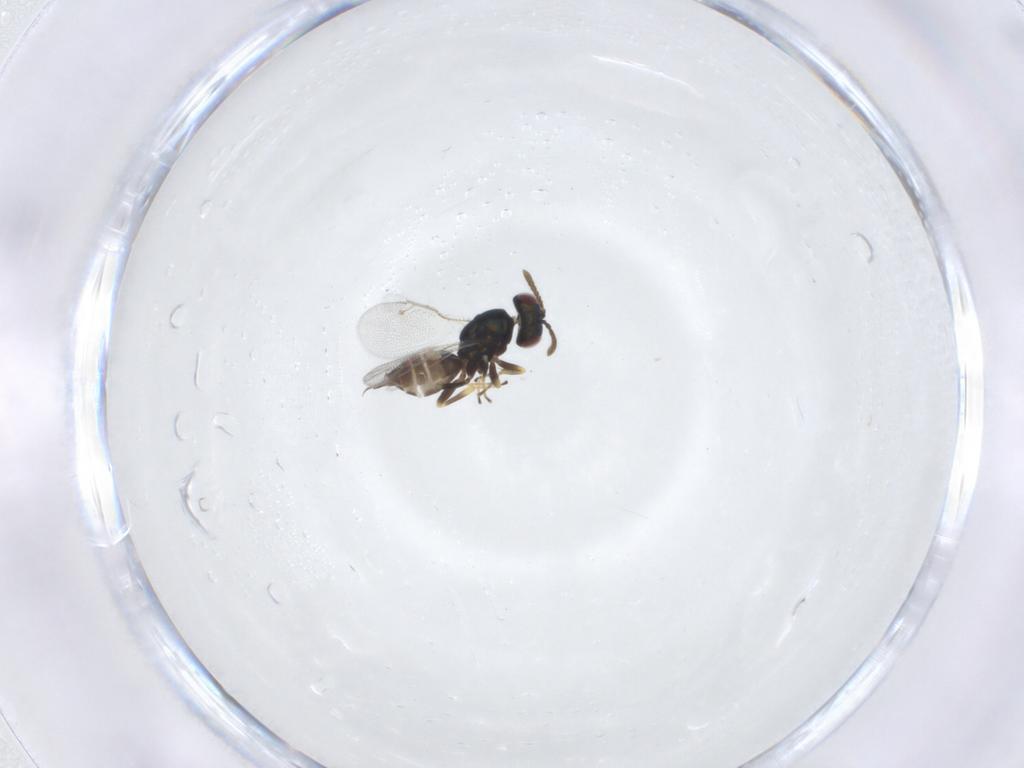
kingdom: Animalia
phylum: Arthropoda
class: Insecta
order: Hymenoptera
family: Pteromalidae
